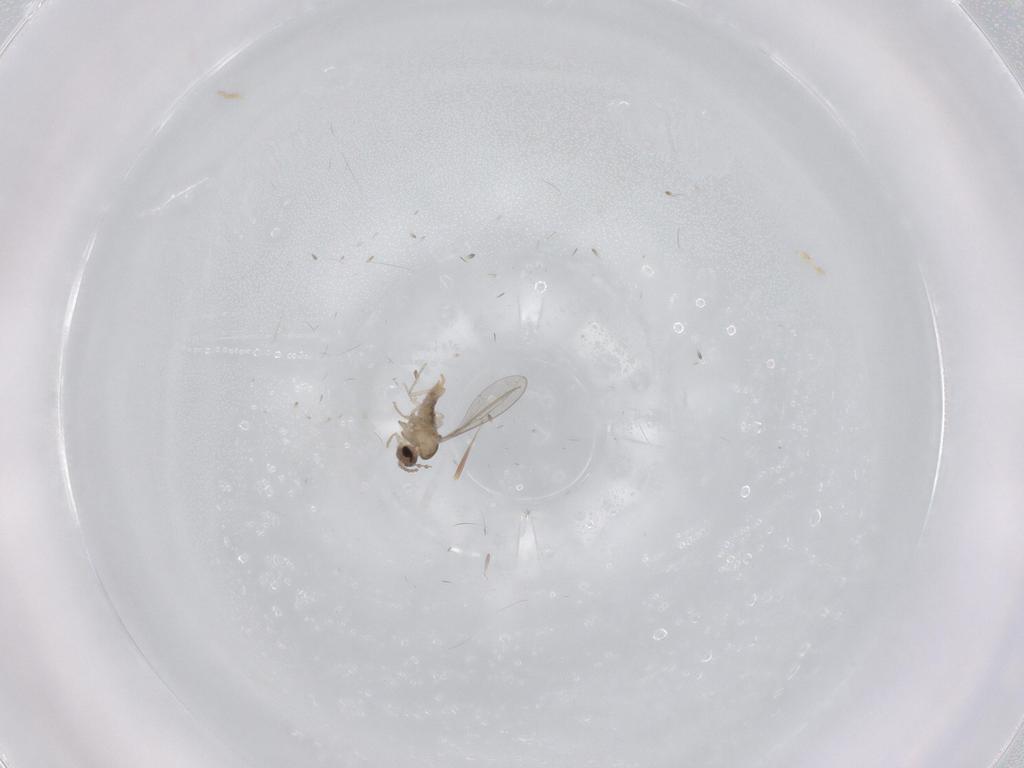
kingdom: Animalia
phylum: Arthropoda
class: Insecta
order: Diptera
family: Cecidomyiidae
